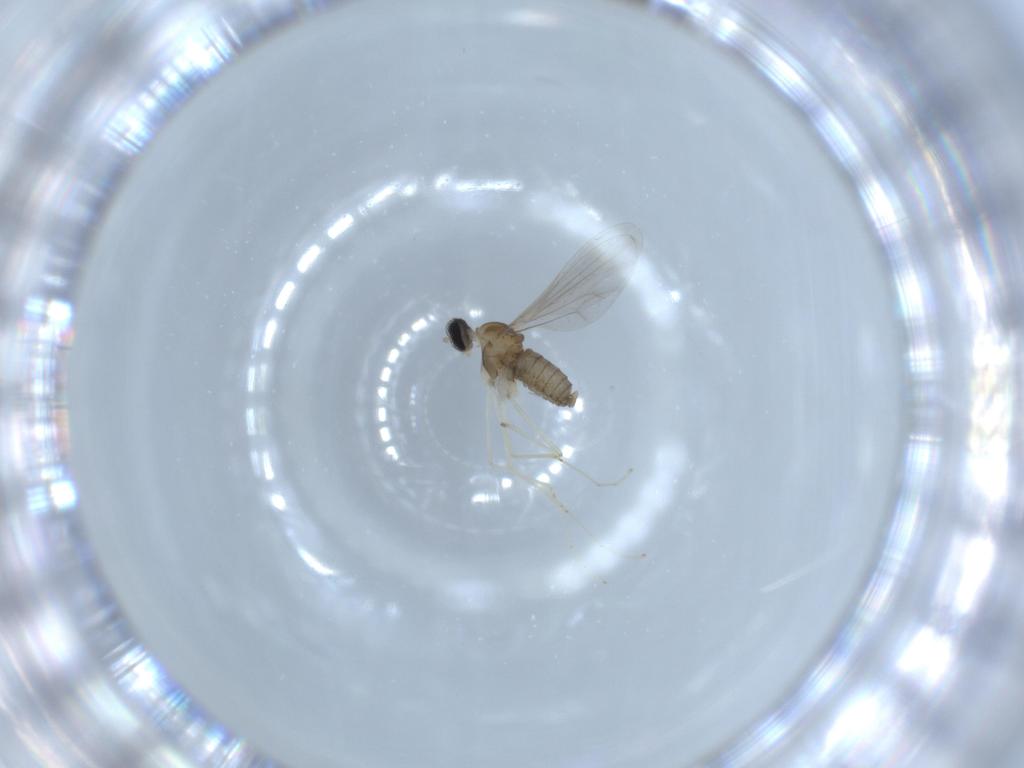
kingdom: Animalia
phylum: Arthropoda
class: Insecta
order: Diptera
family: Cecidomyiidae
